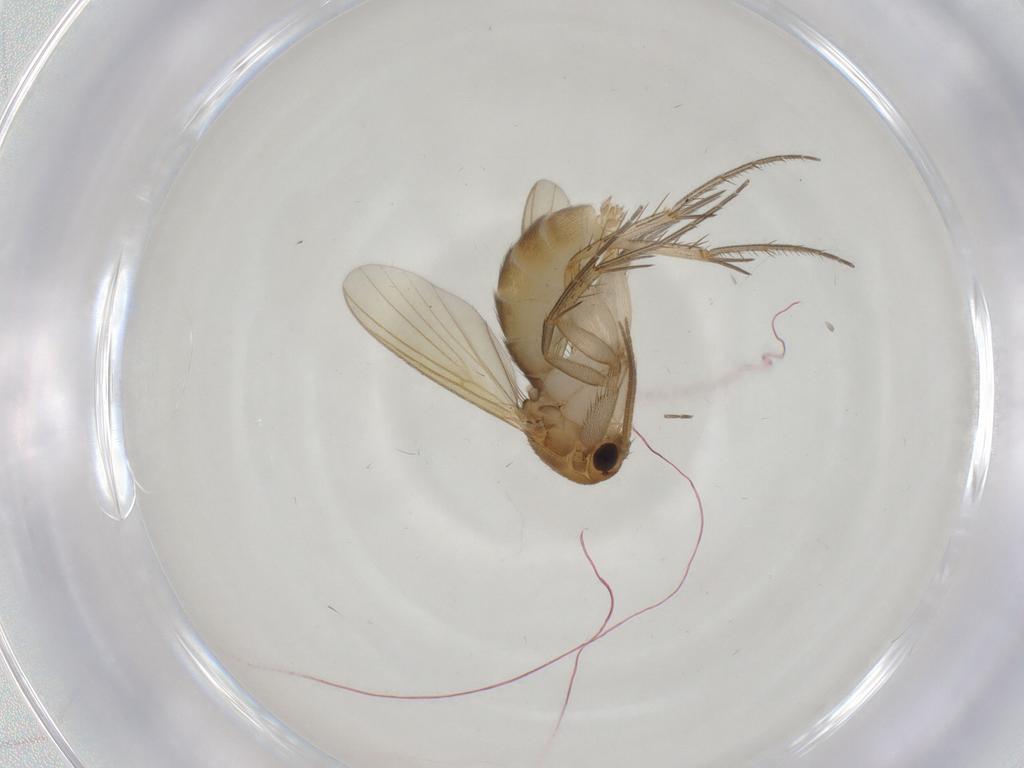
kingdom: Animalia
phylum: Arthropoda
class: Insecta
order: Diptera
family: Mycetophilidae
